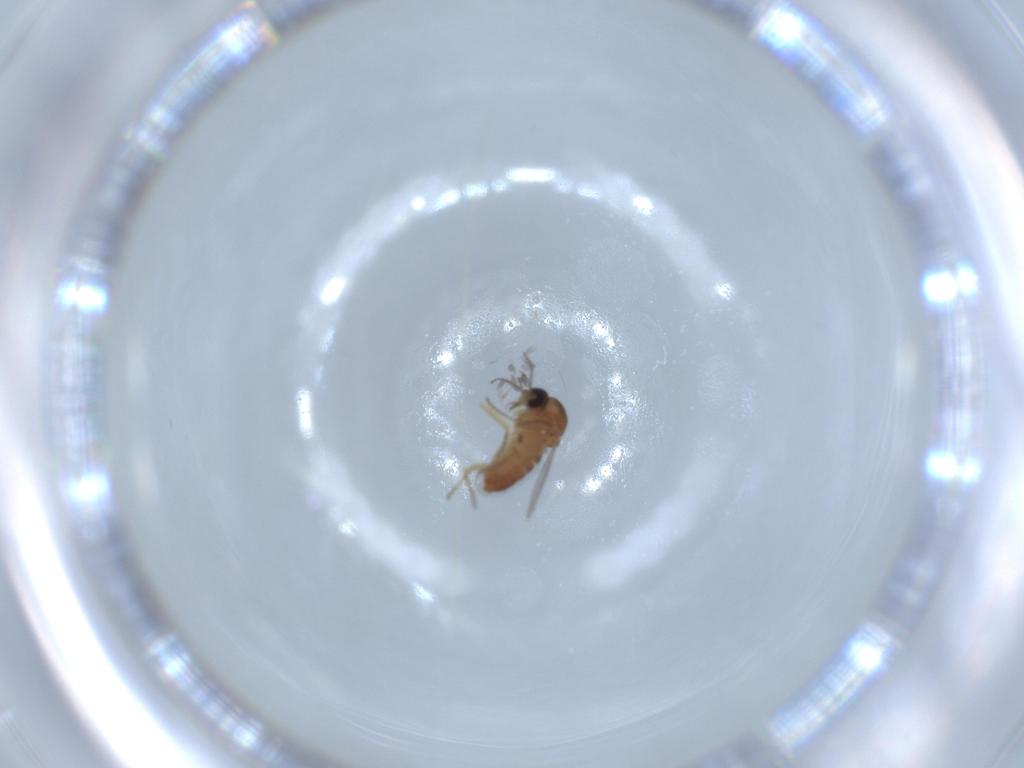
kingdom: Animalia
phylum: Arthropoda
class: Insecta
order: Diptera
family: Ceratopogonidae
